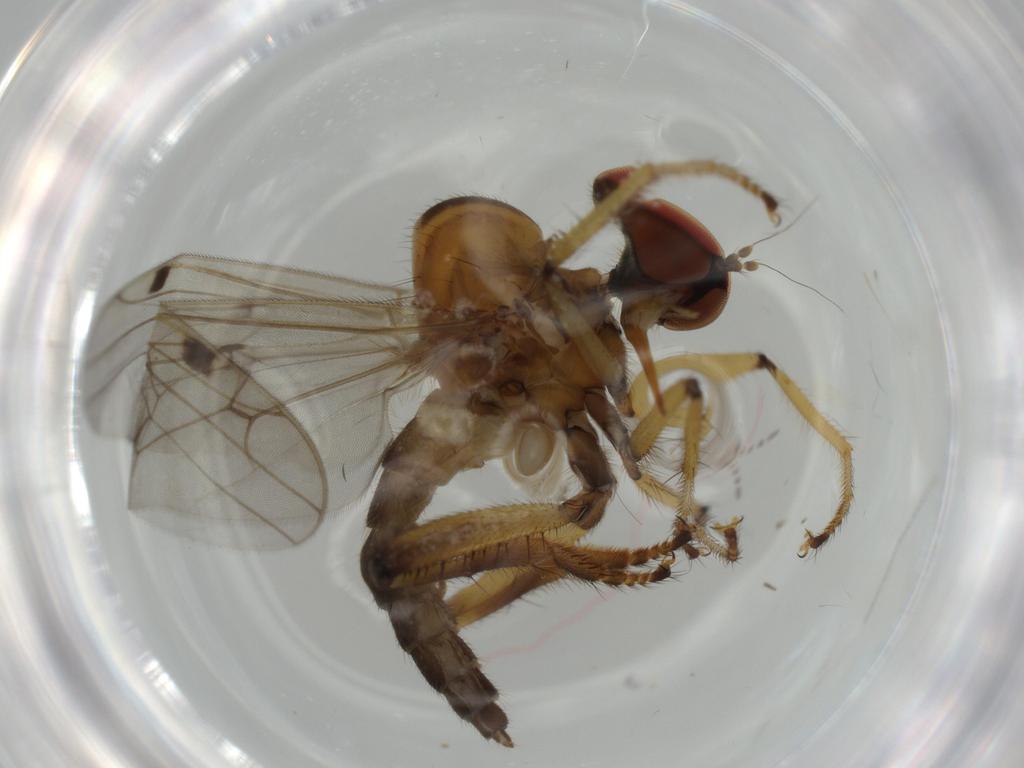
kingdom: Animalia
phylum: Arthropoda
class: Insecta
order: Diptera
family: Hybotidae
